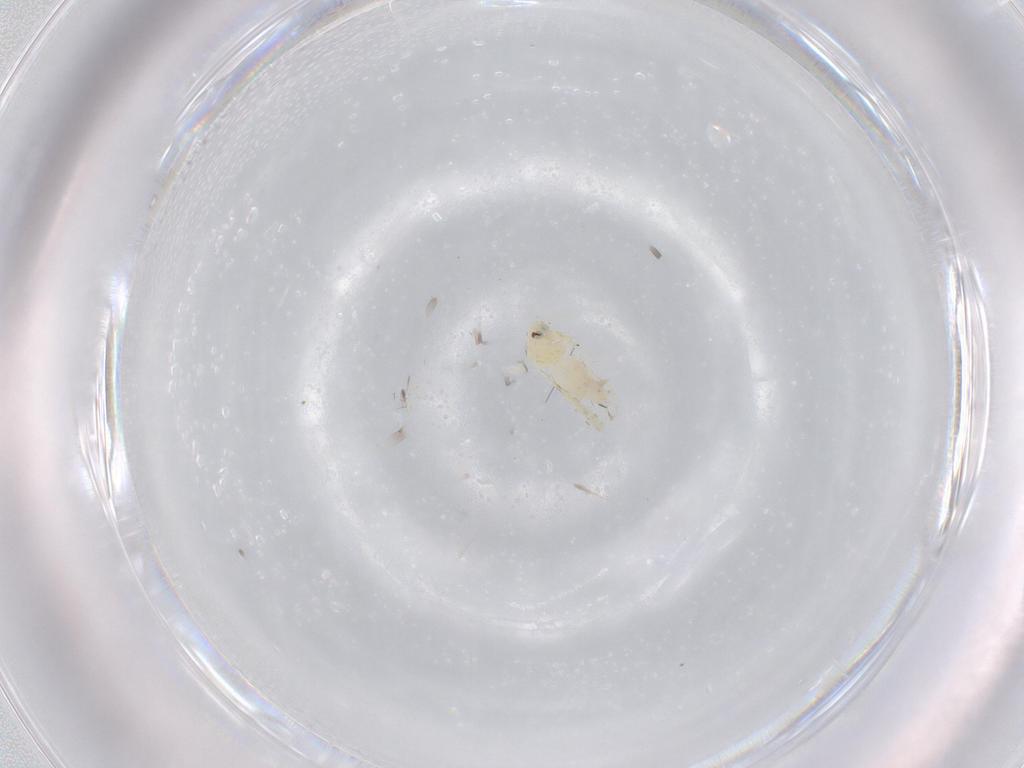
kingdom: Animalia
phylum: Arthropoda
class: Insecta
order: Hemiptera
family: Aleyrodidae
